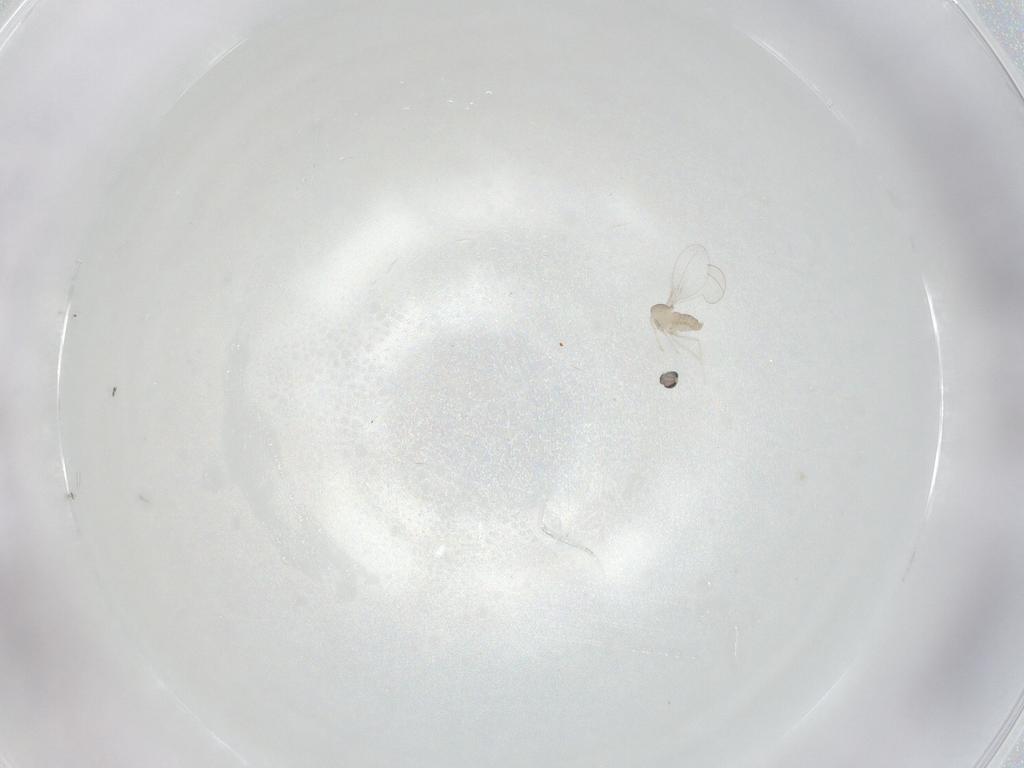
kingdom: Animalia
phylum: Arthropoda
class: Insecta
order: Diptera
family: Cecidomyiidae
